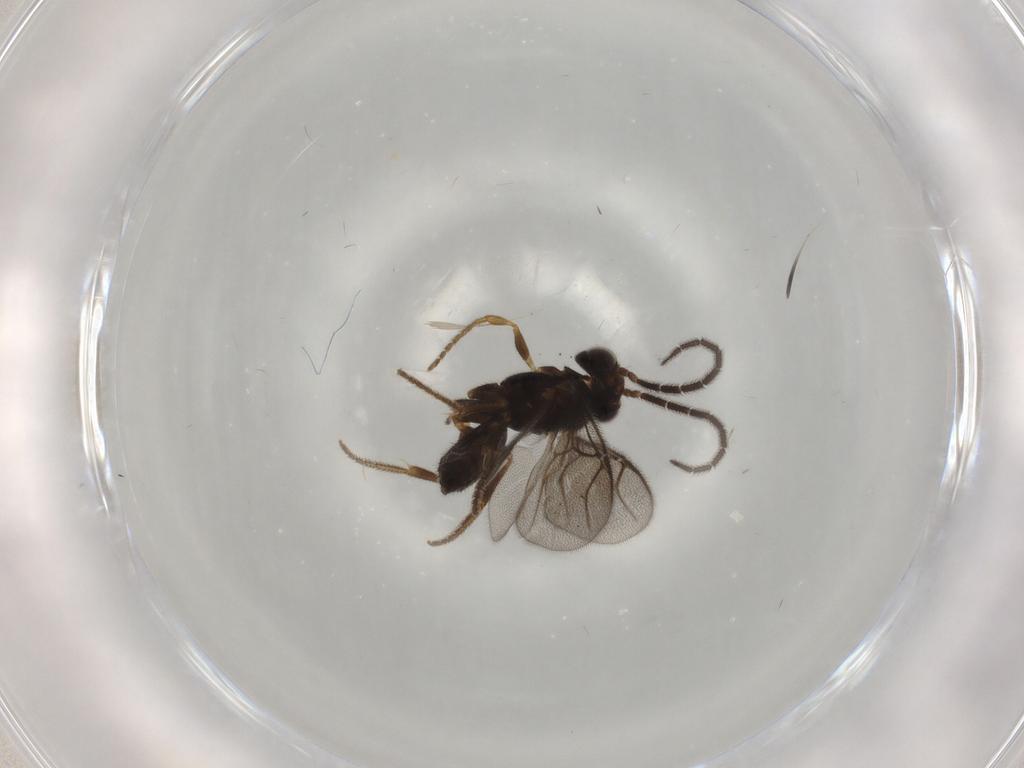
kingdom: Animalia
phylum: Arthropoda
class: Insecta
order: Hymenoptera
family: Dryinidae
